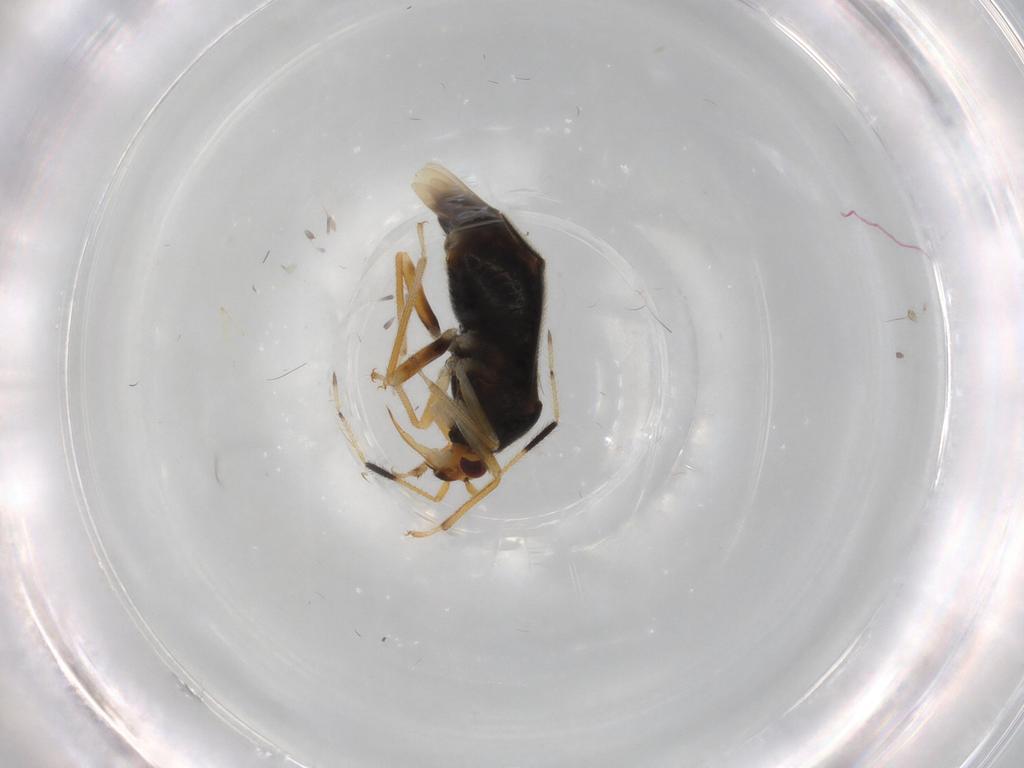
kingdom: Animalia
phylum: Arthropoda
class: Insecta
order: Hemiptera
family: Miridae
